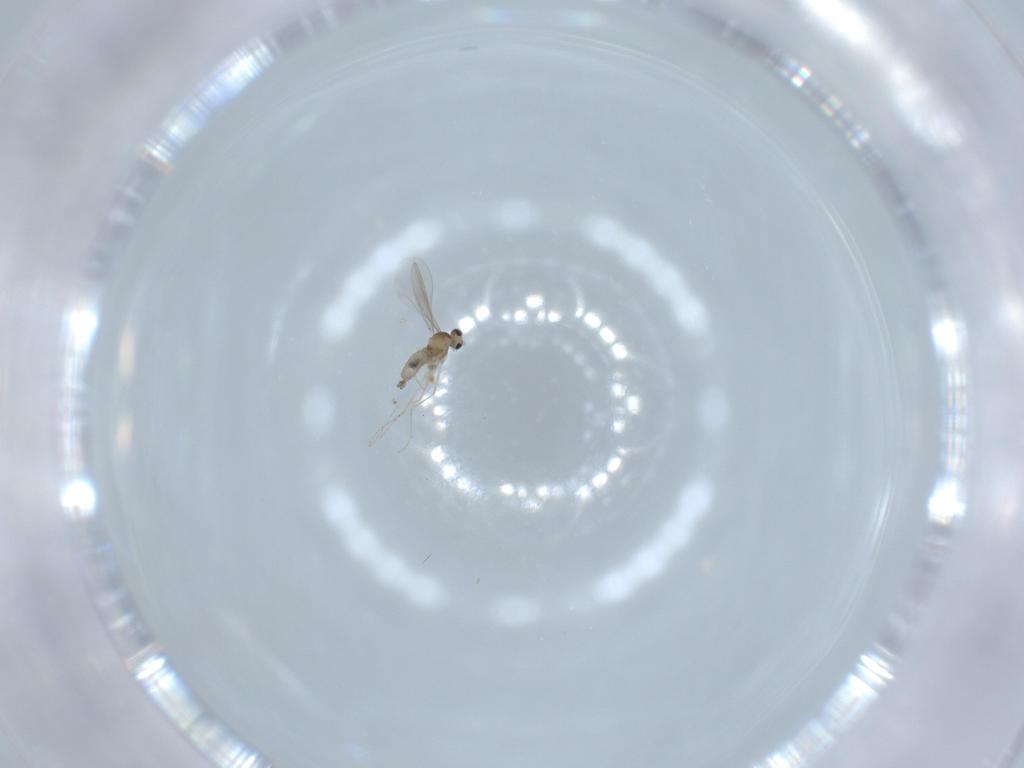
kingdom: Animalia
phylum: Arthropoda
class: Insecta
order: Diptera
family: Cecidomyiidae
